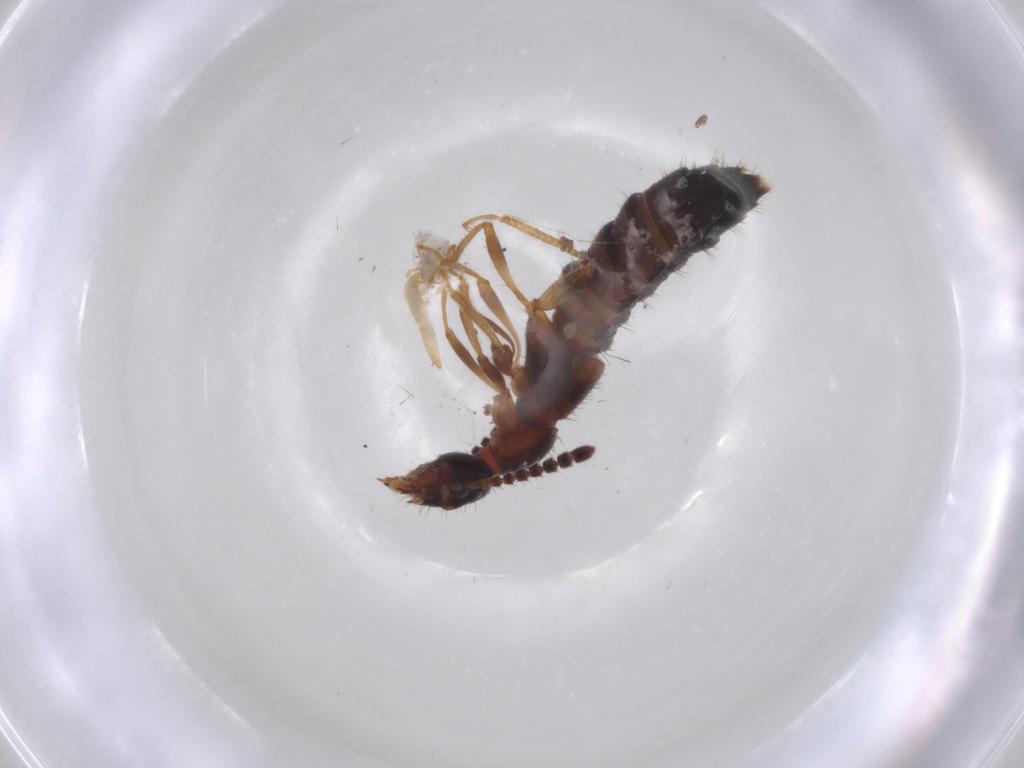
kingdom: Animalia
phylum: Arthropoda
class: Insecta
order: Coleoptera
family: Staphylinidae
